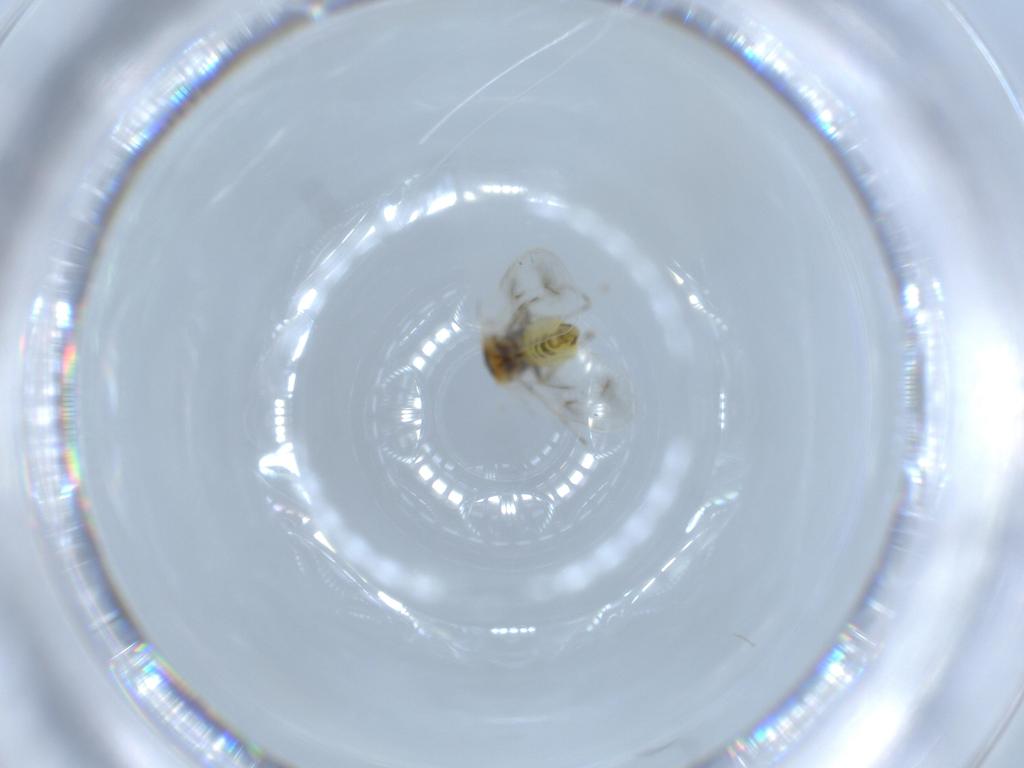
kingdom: Animalia
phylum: Arthropoda
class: Insecta
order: Hemiptera
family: Aleyrodidae
